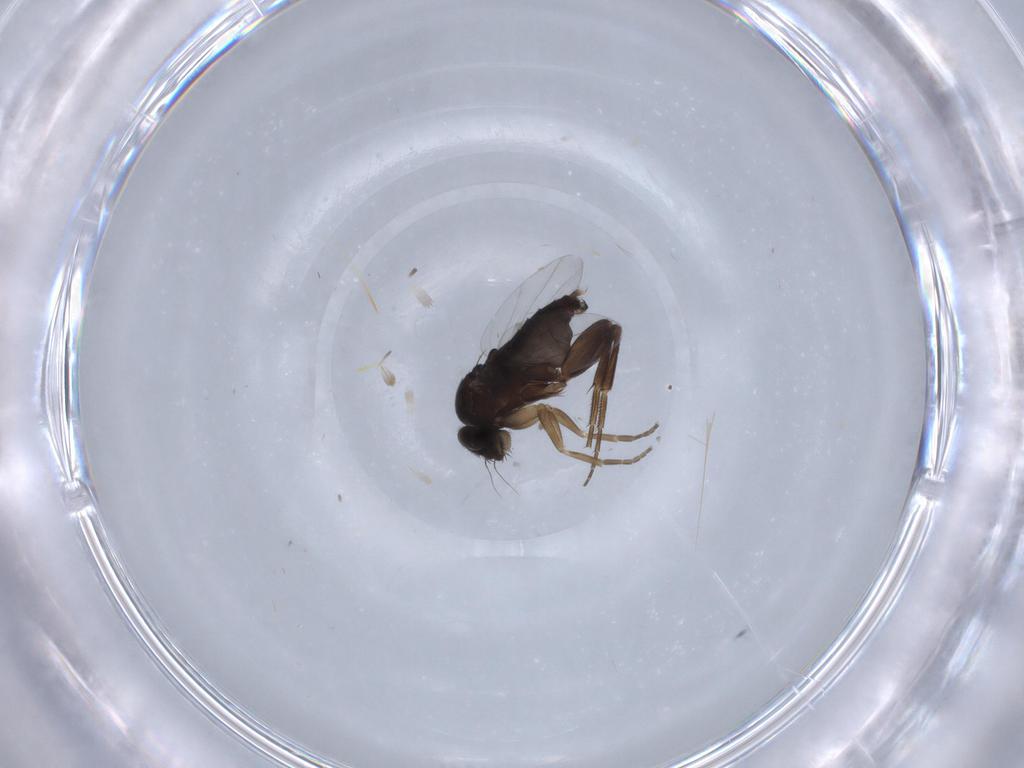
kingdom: Animalia
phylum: Arthropoda
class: Insecta
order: Diptera
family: Phoridae
